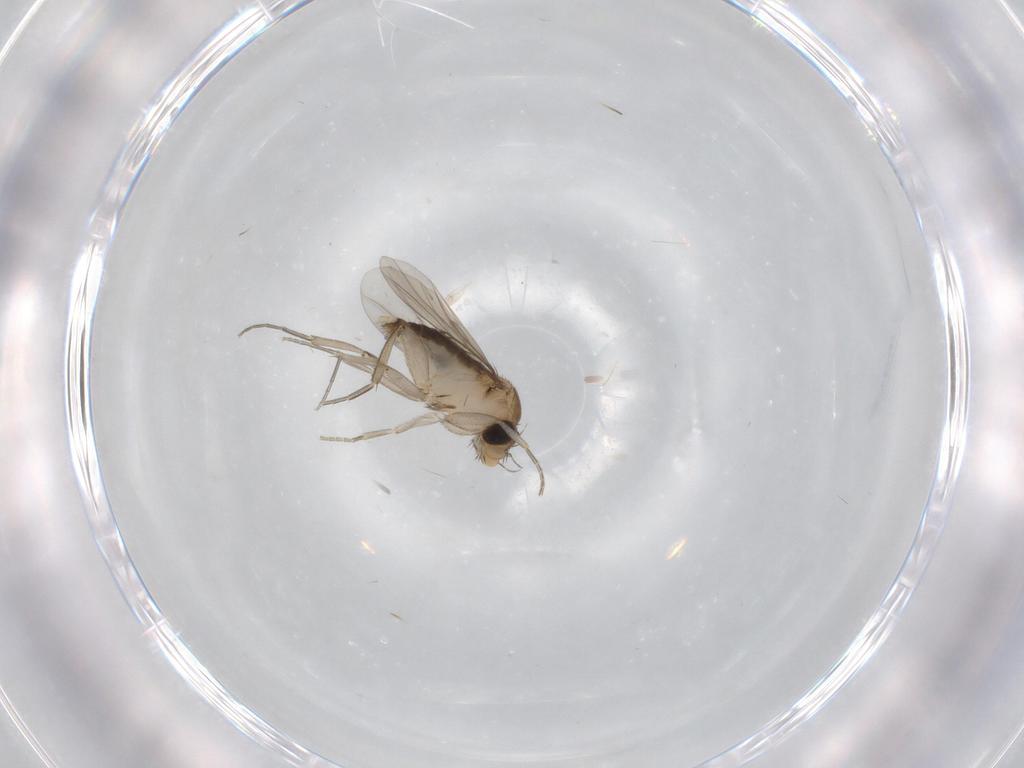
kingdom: Animalia
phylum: Arthropoda
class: Insecta
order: Diptera
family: Phoridae
